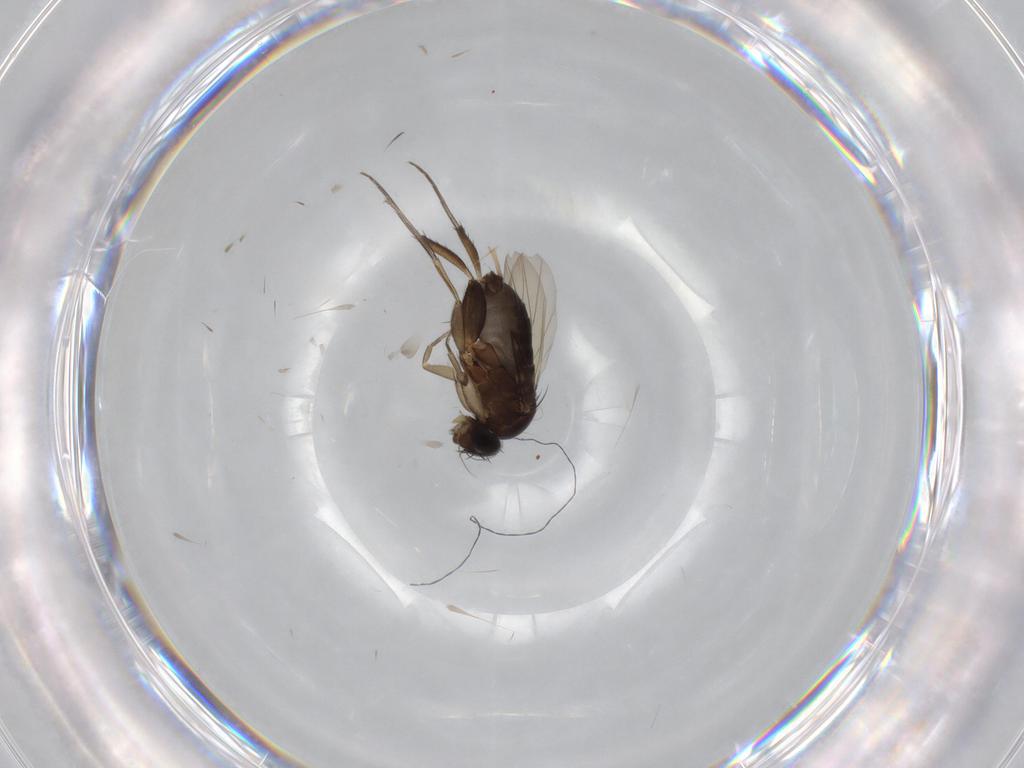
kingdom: Animalia
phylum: Arthropoda
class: Insecta
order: Diptera
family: Phoridae
